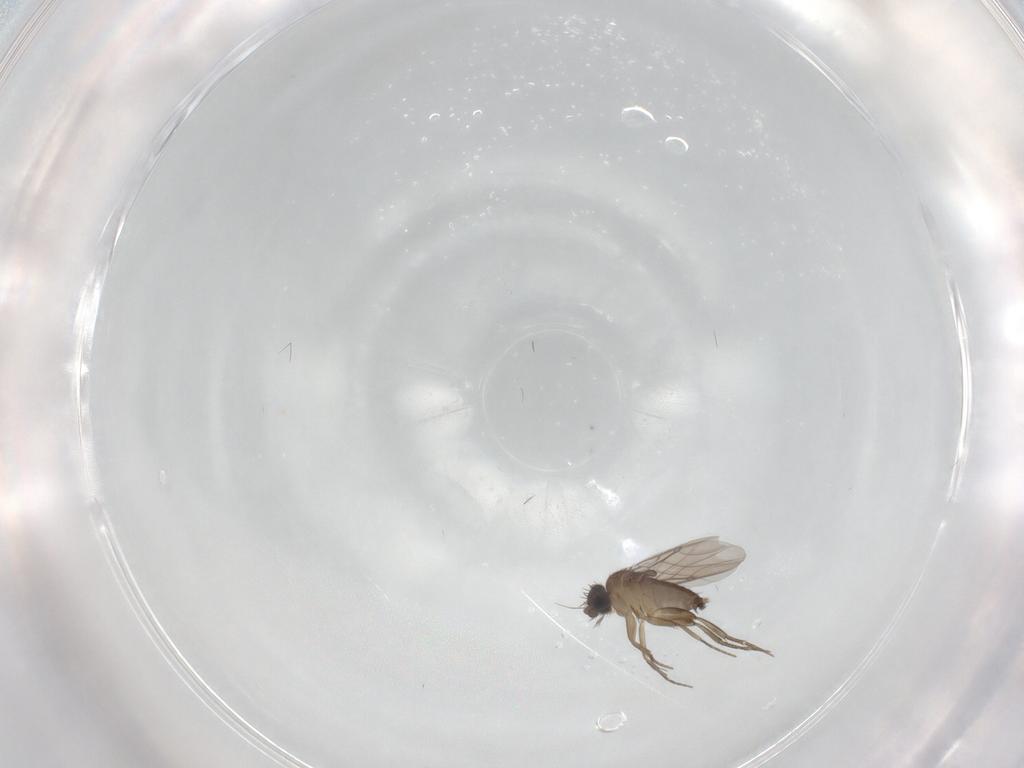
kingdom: Animalia
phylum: Arthropoda
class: Insecta
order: Diptera
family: Phoridae
